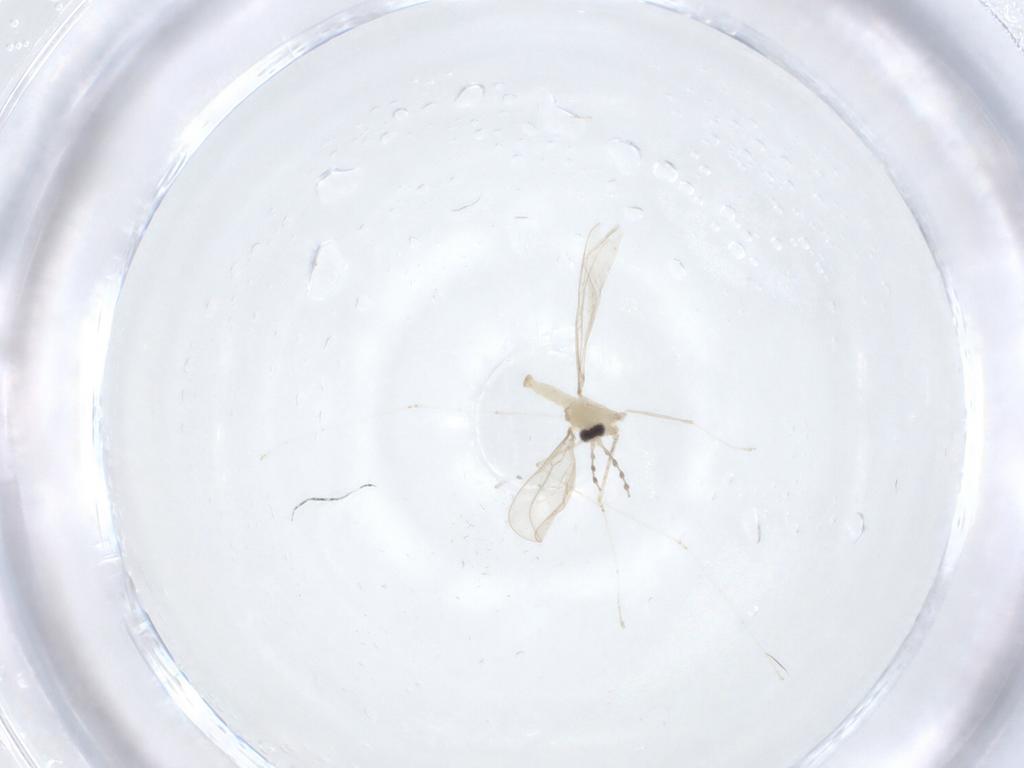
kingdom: Animalia
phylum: Arthropoda
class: Insecta
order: Diptera
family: Cecidomyiidae
